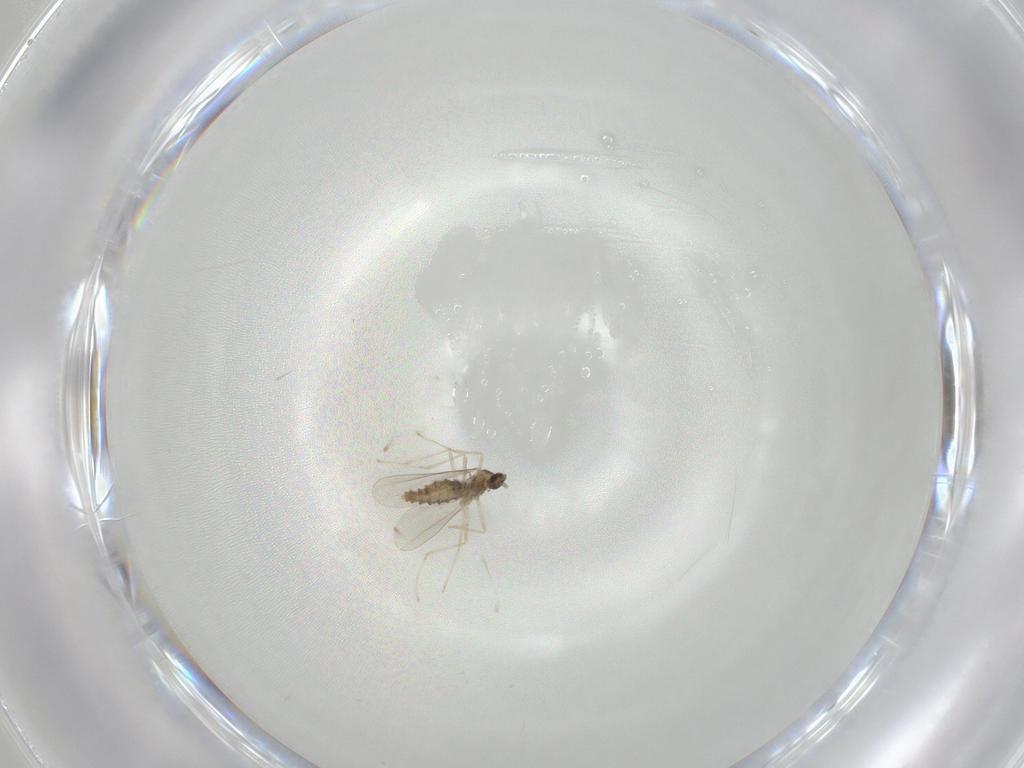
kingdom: Animalia
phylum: Arthropoda
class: Insecta
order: Diptera
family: Cecidomyiidae
